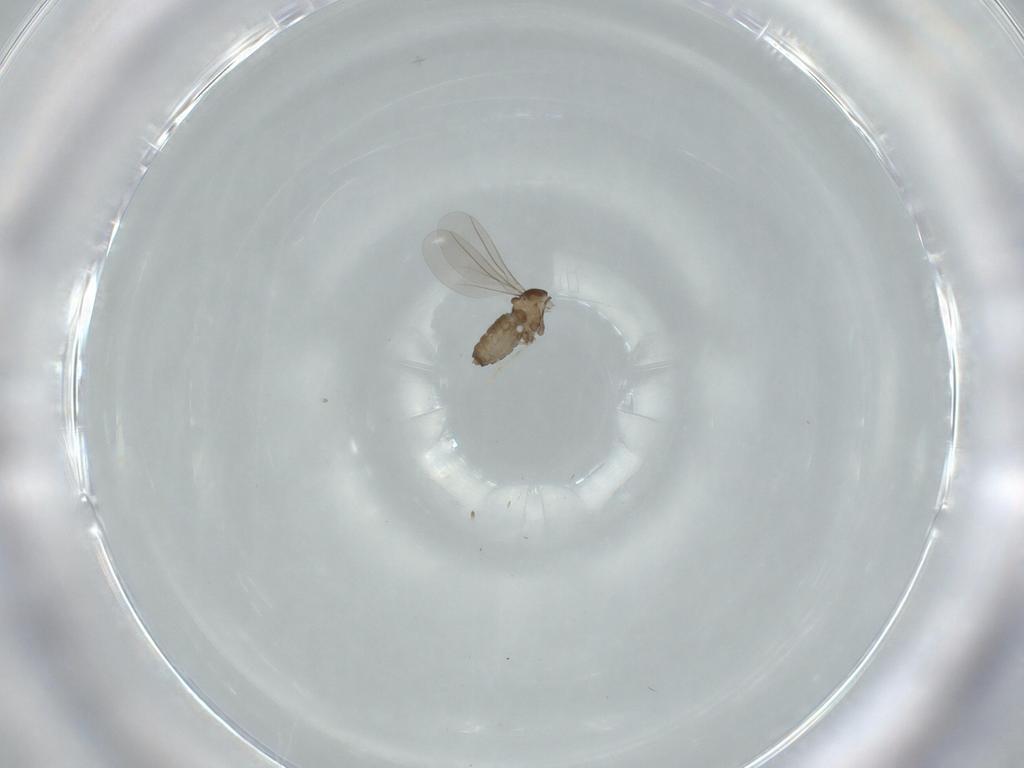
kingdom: Animalia
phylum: Arthropoda
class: Insecta
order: Diptera
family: Cecidomyiidae
